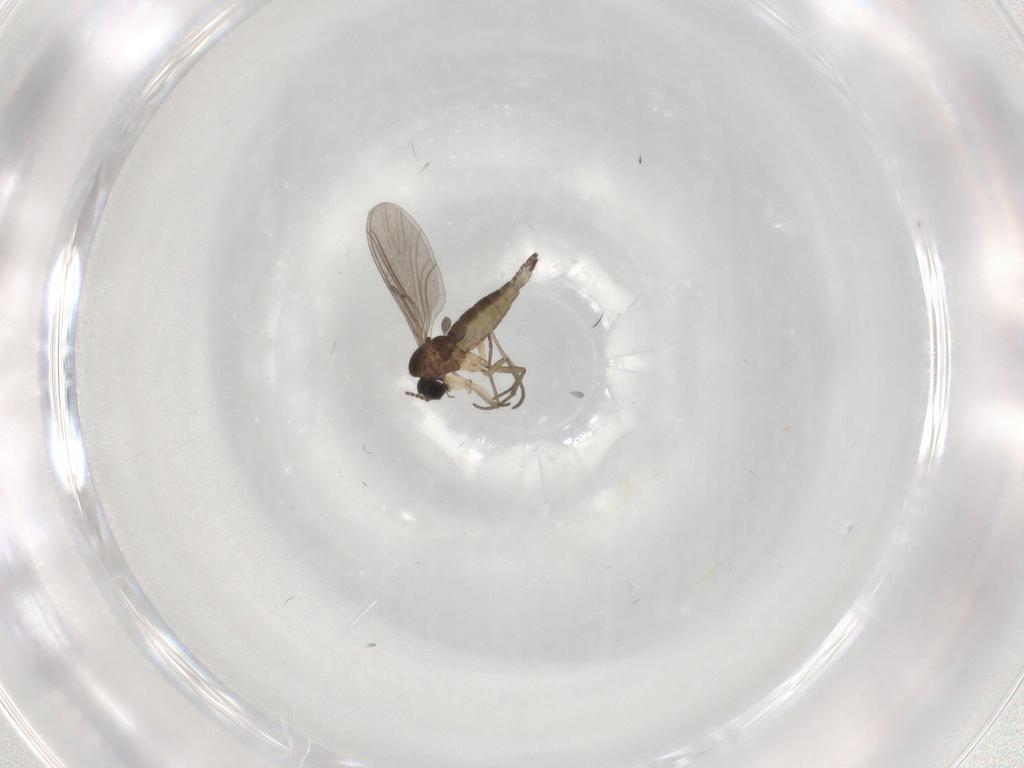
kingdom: Animalia
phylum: Arthropoda
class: Insecta
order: Diptera
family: Sciaridae
